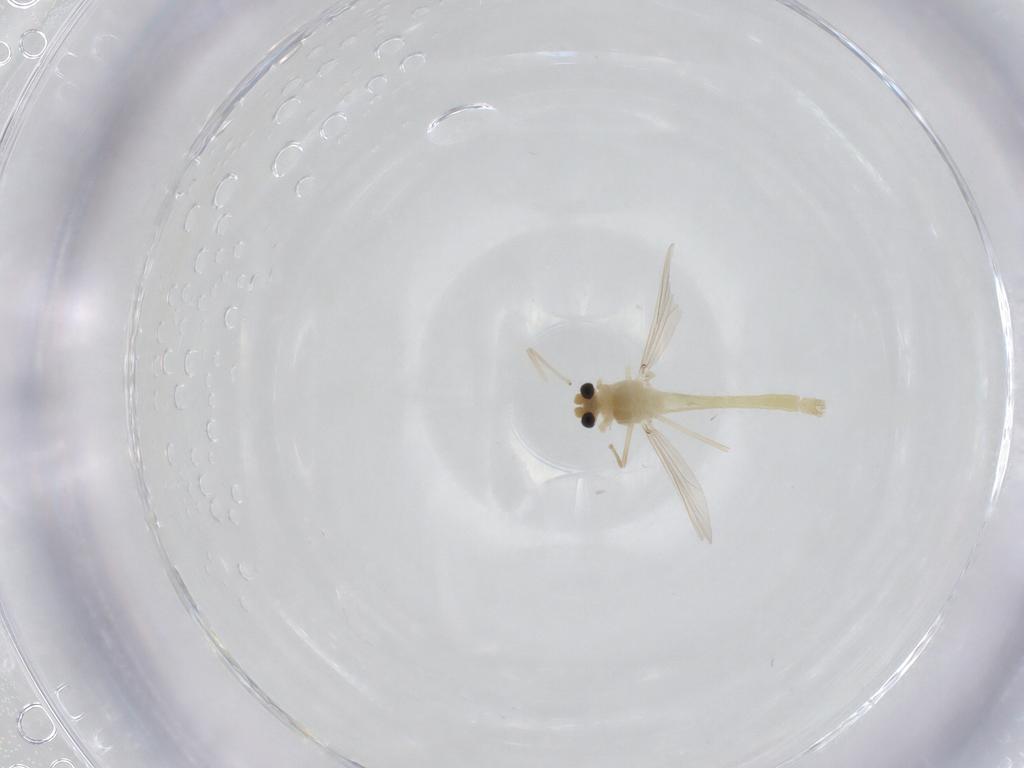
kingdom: Animalia
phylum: Arthropoda
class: Insecta
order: Diptera
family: Chironomidae
